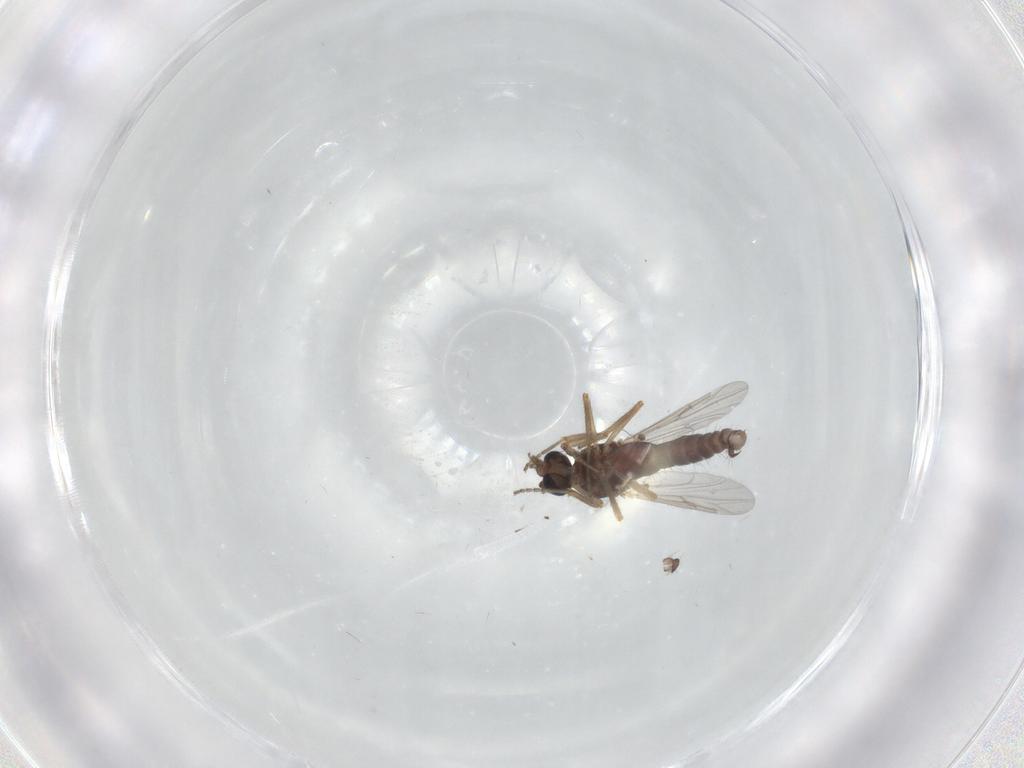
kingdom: Animalia
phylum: Arthropoda
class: Insecta
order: Diptera
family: Ceratopogonidae
